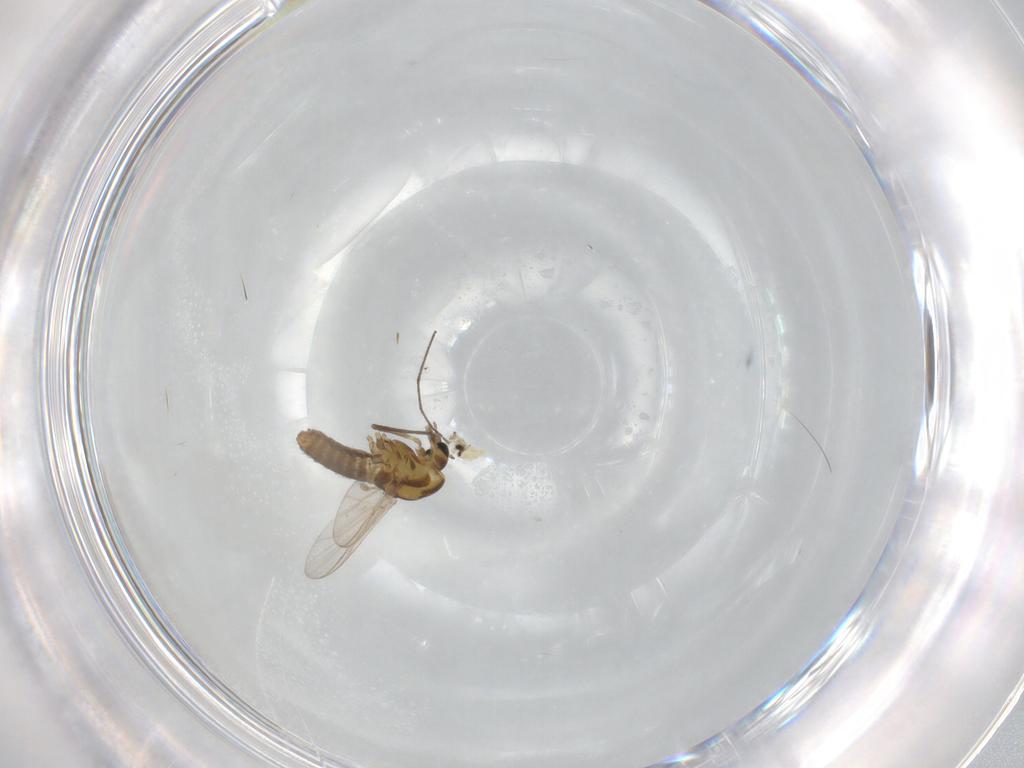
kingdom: Animalia
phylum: Arthropoda
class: Insecta
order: Diptera
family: Chironomidae
